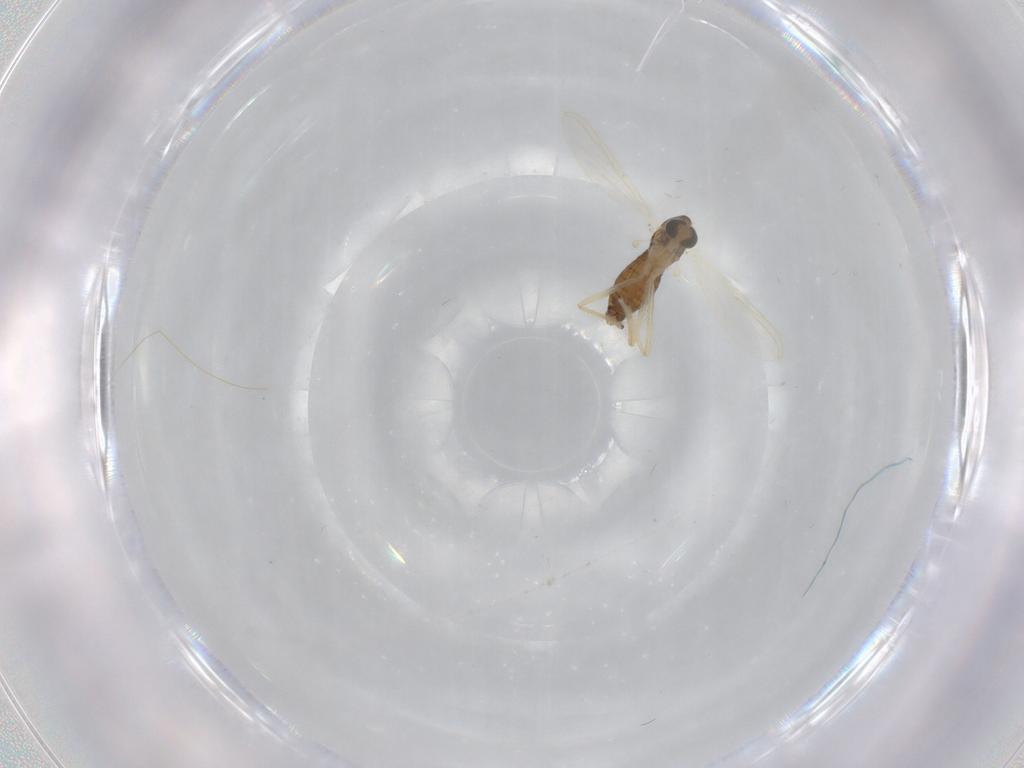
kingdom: Animalia
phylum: Arthropoda
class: Insecta
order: Diptera
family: Chironomidae
